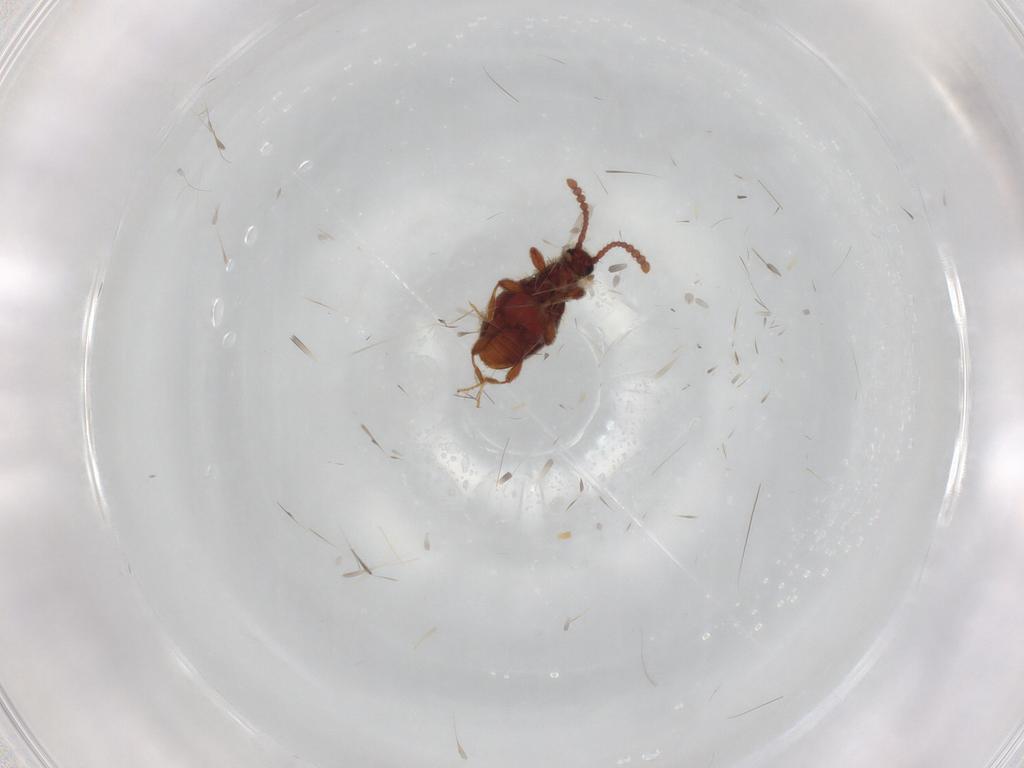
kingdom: Animalia
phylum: Arthropoda
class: Insecta
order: Coleoptera
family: Staphylinidae
